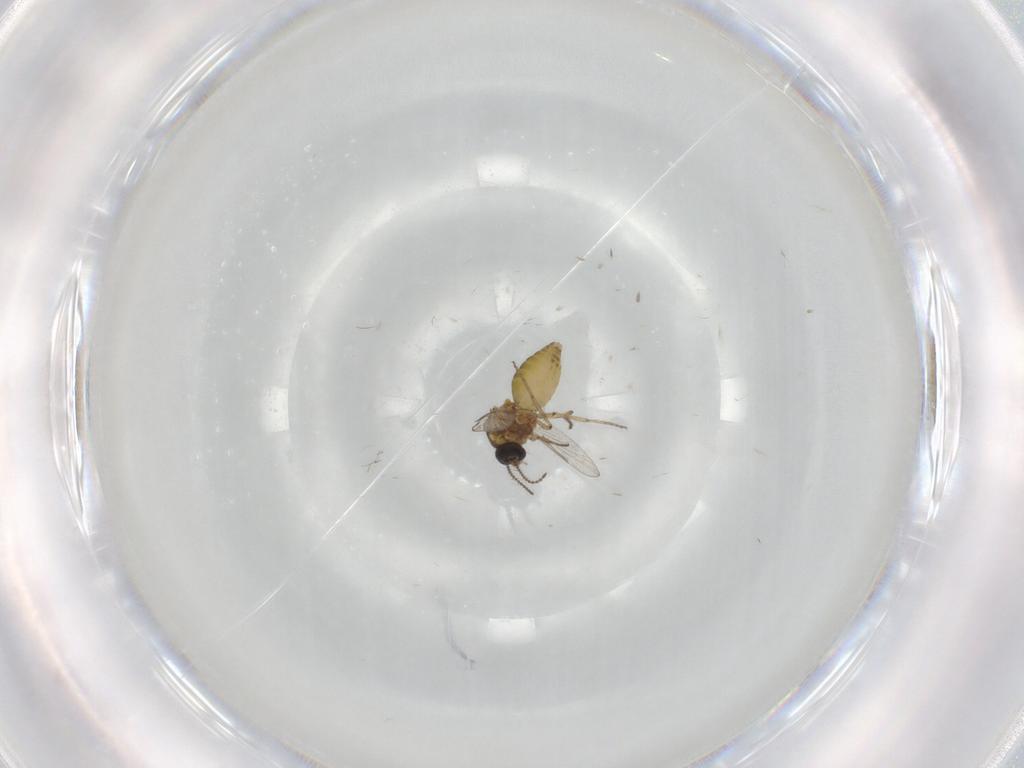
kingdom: Animalia
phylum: Arthropoda
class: Insecta
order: Diptera
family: Ceratopogonidae
